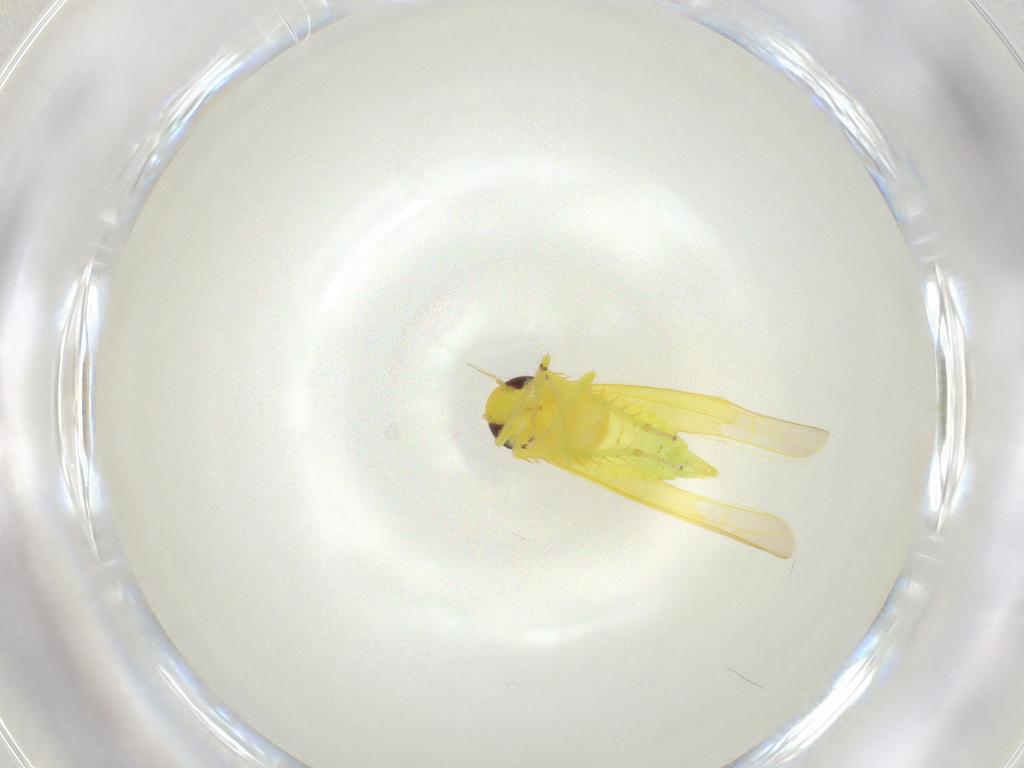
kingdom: Animalia
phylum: Arthropoda
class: Insecta
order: Hemiptera
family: Cicadellidae
